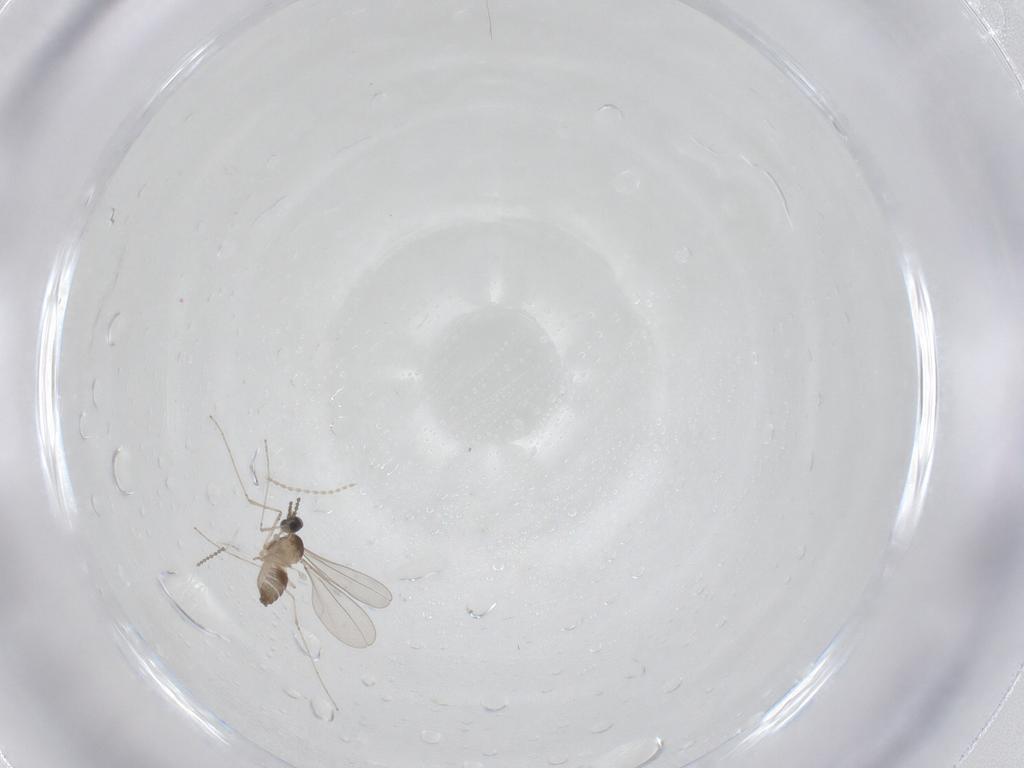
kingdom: Animalia
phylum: Arthropoda
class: Insecta
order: Diptera
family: Cecidomyiidae
